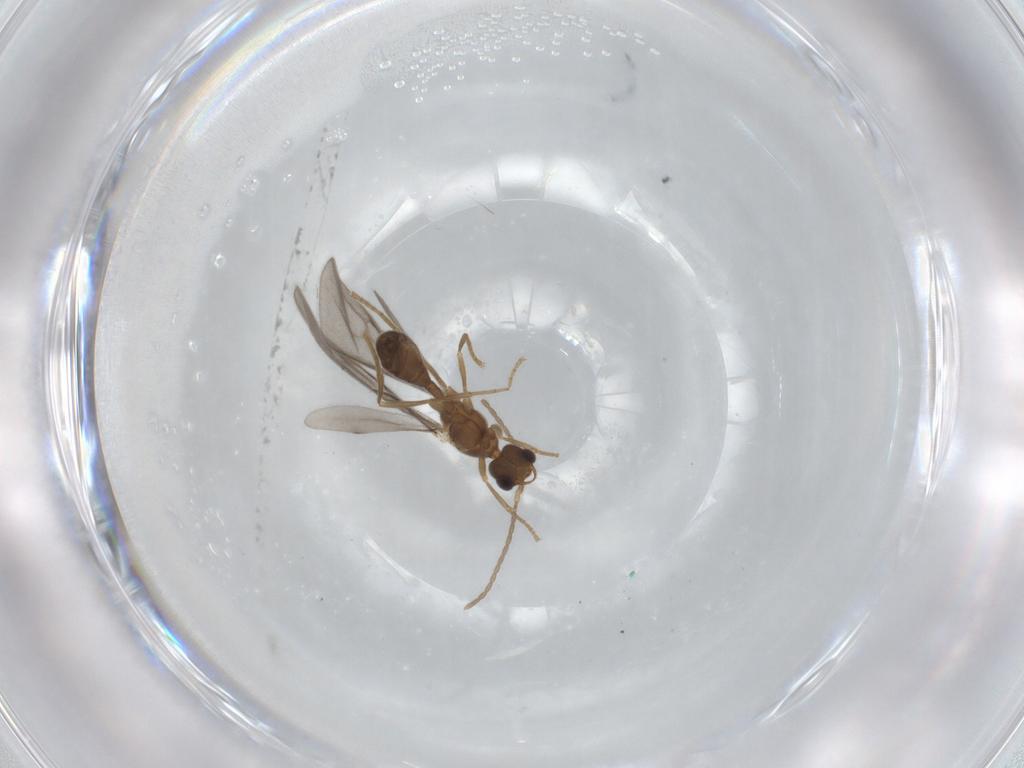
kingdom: Animalia
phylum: Arthropoda
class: Insecta
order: Hymenoptera
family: Formicidae
